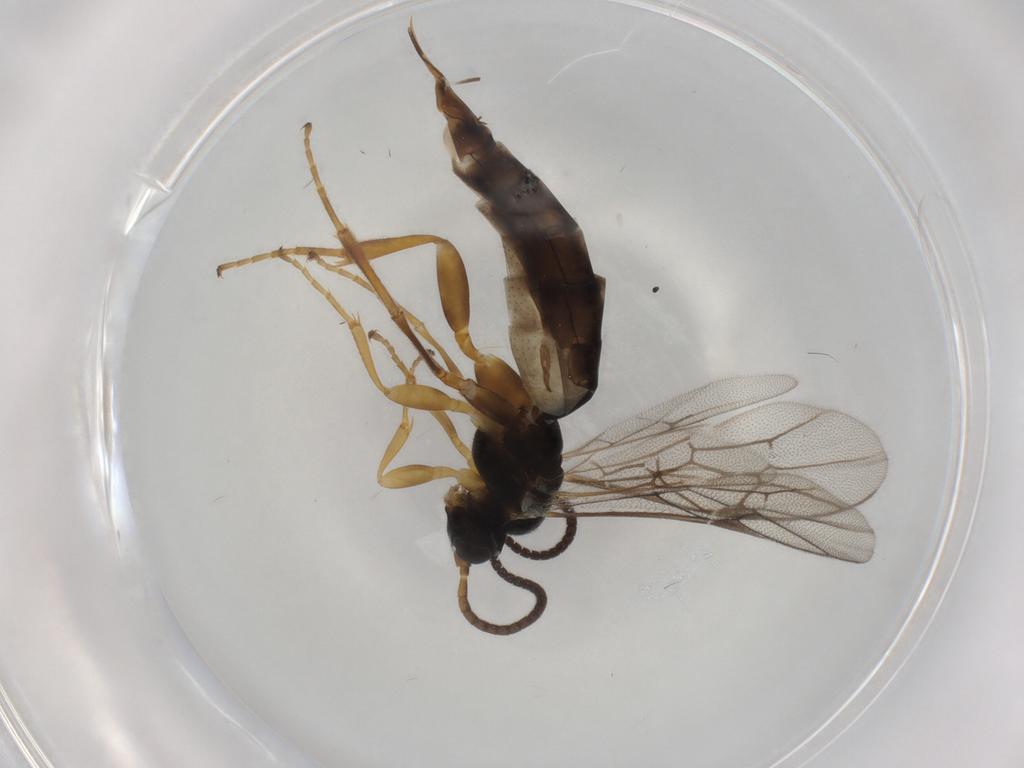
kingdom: Animalia
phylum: Arthropoda
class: Insecta
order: Hymenoptera
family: Ichneumonidae
